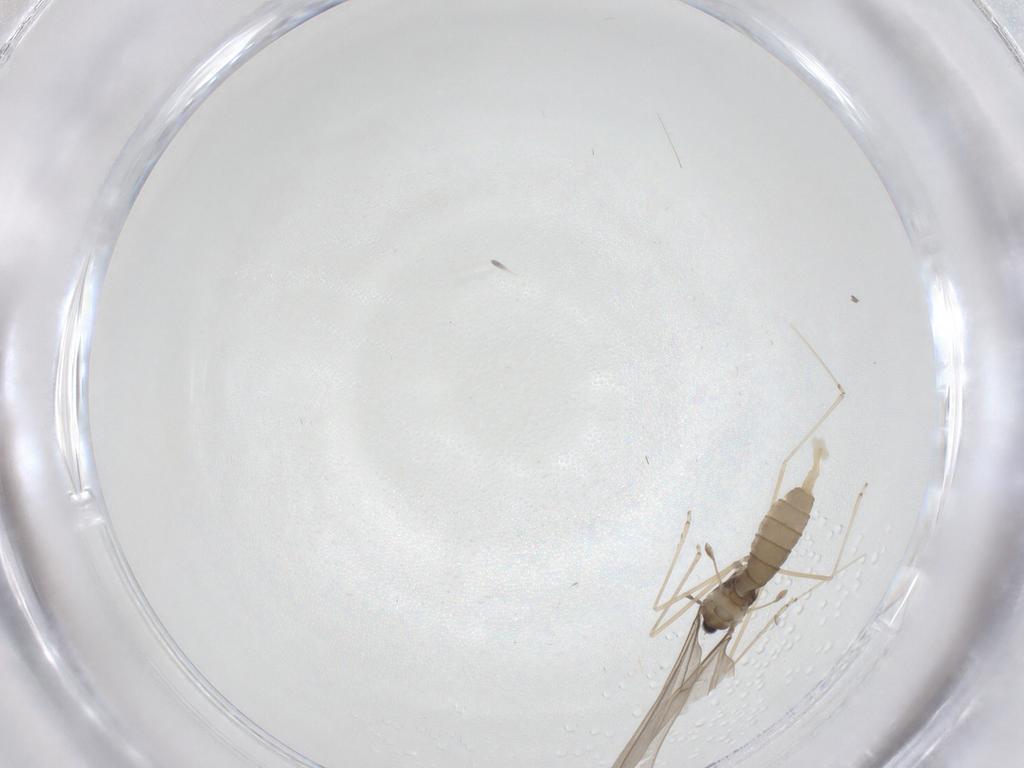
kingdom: Animalia
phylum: Arthropoda
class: Insecta
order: Diptera
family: Cecidomyiidae
